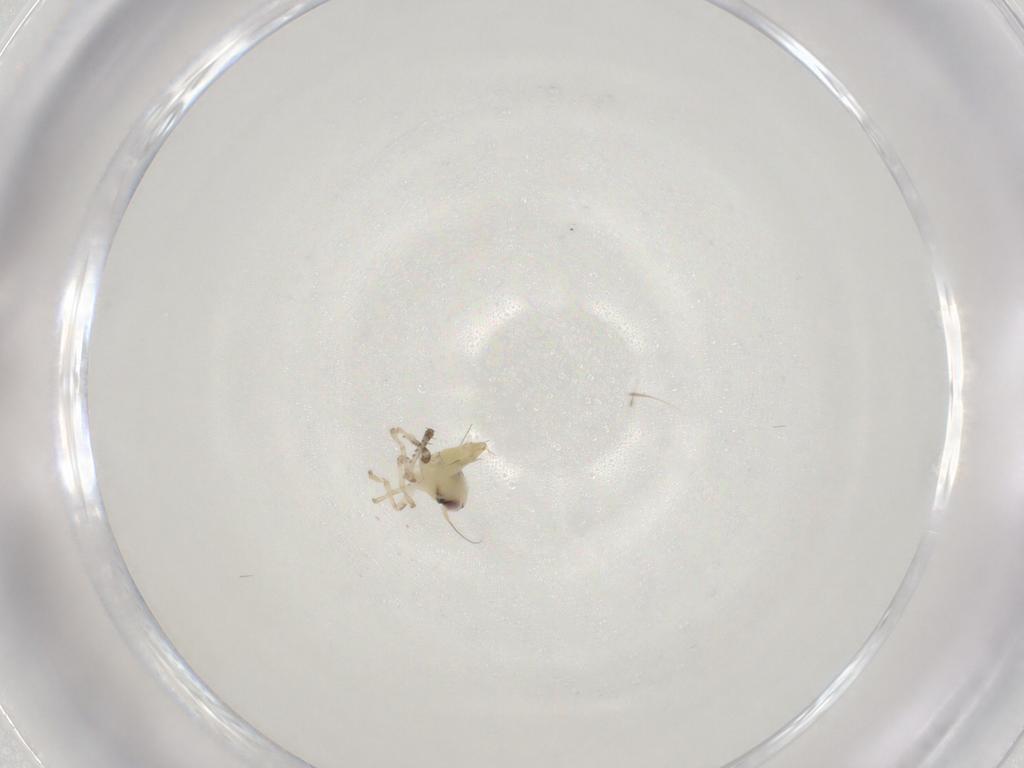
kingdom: Animalia
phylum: Arthropoda
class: Insecta
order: Hemiptera
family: Cicadellidae
